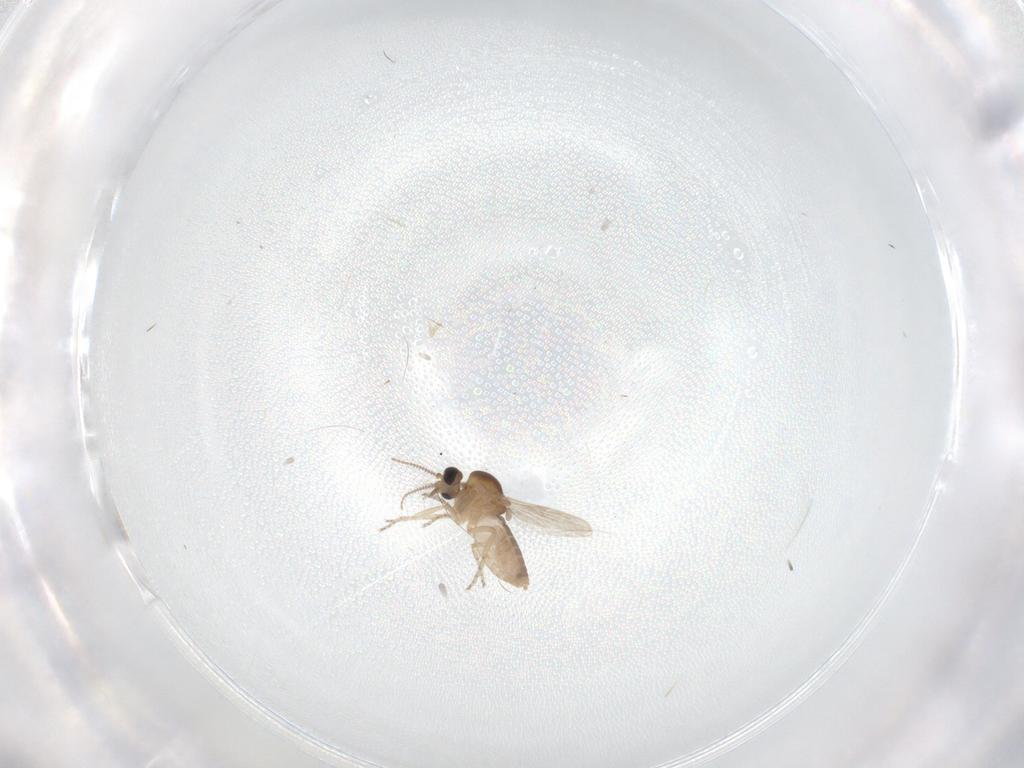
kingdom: Animalia
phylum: Arthropoda
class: Insecta
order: Diptera
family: Ceratopogonidae
